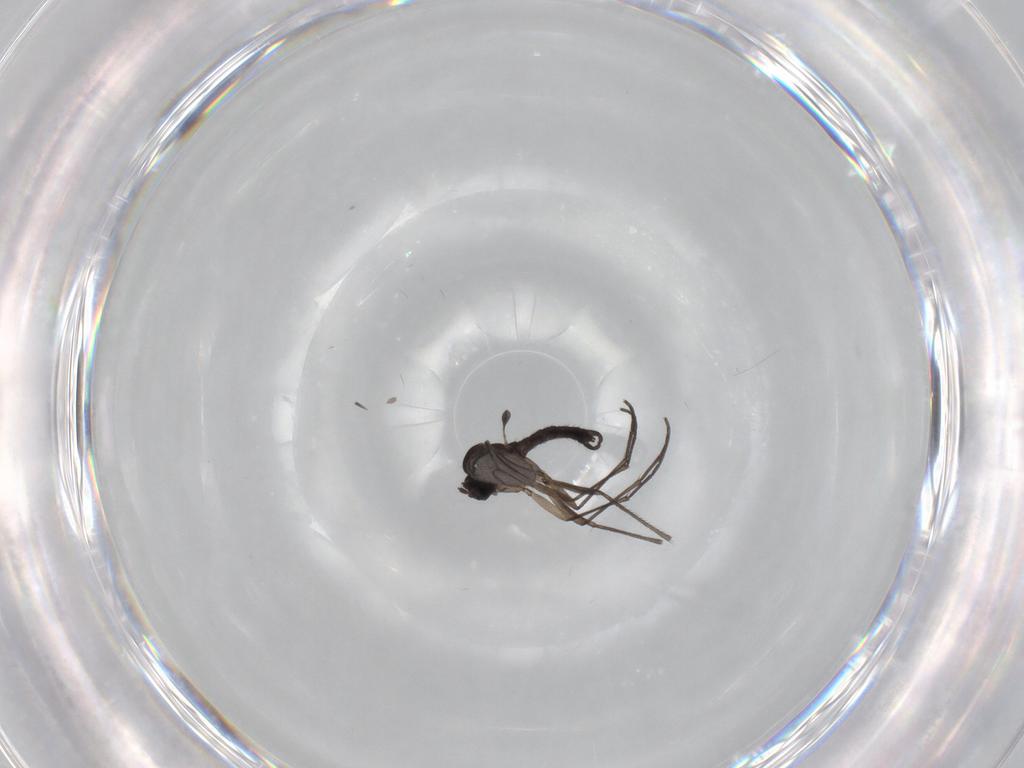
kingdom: Animalia
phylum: Arthropoda
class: Insecta
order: Diptera
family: Sciaridae
